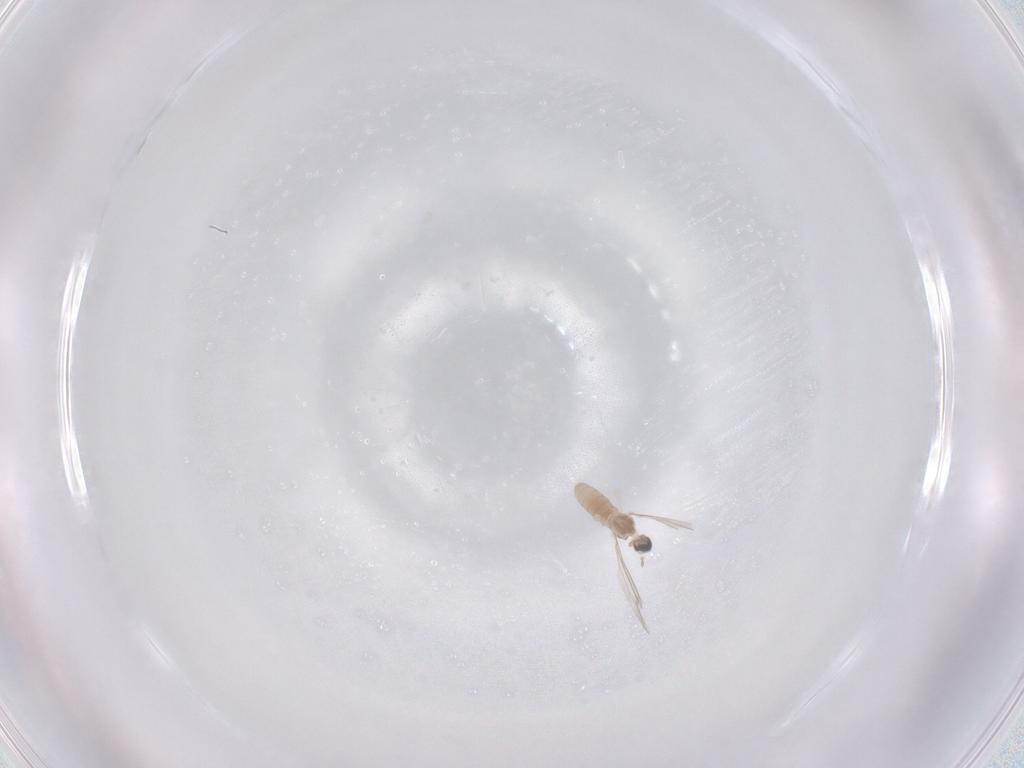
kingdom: Animalia
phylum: Arthropoda
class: Insecta
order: Diptera
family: Cecidomyiidae
